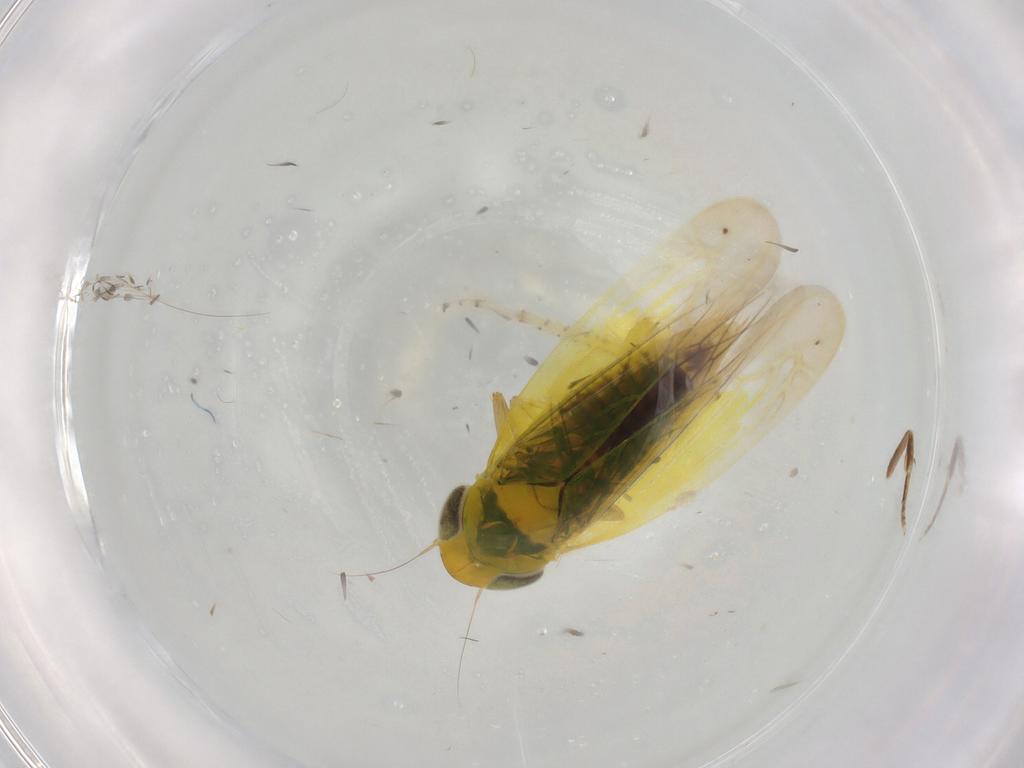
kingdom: Animalia
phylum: Arthropoda
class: Insecta
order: Hemiptera
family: Cicadellidae
